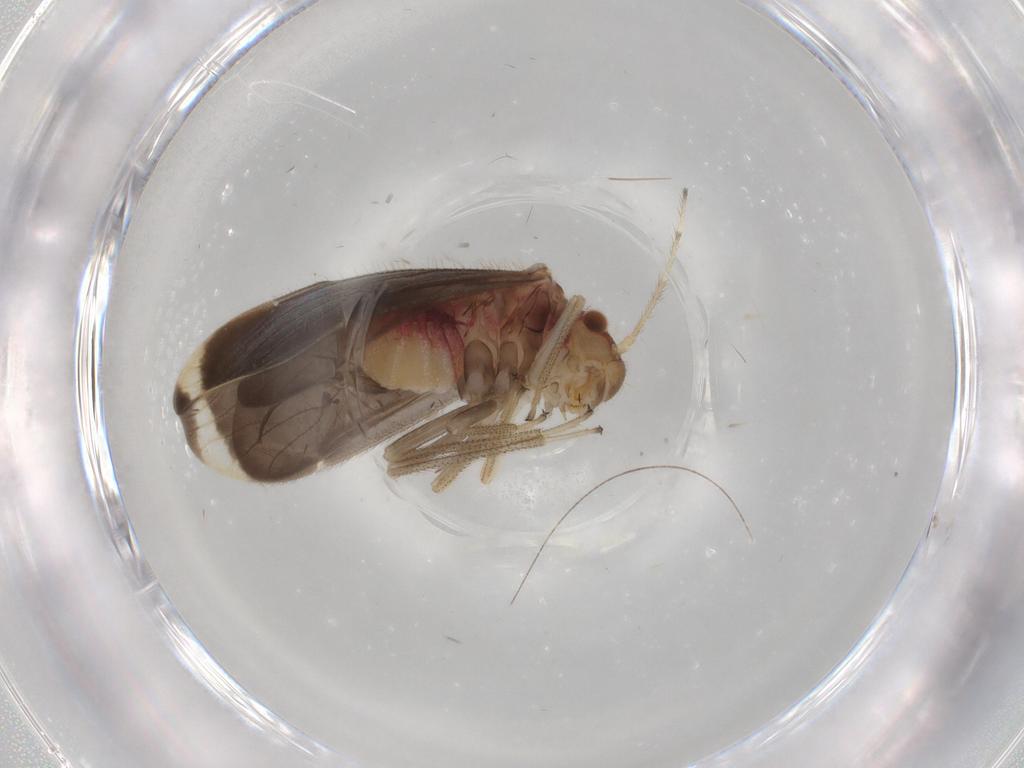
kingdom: Animalia
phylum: Arthropoda
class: Insecta
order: Psocodea
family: Amphipsocidae
